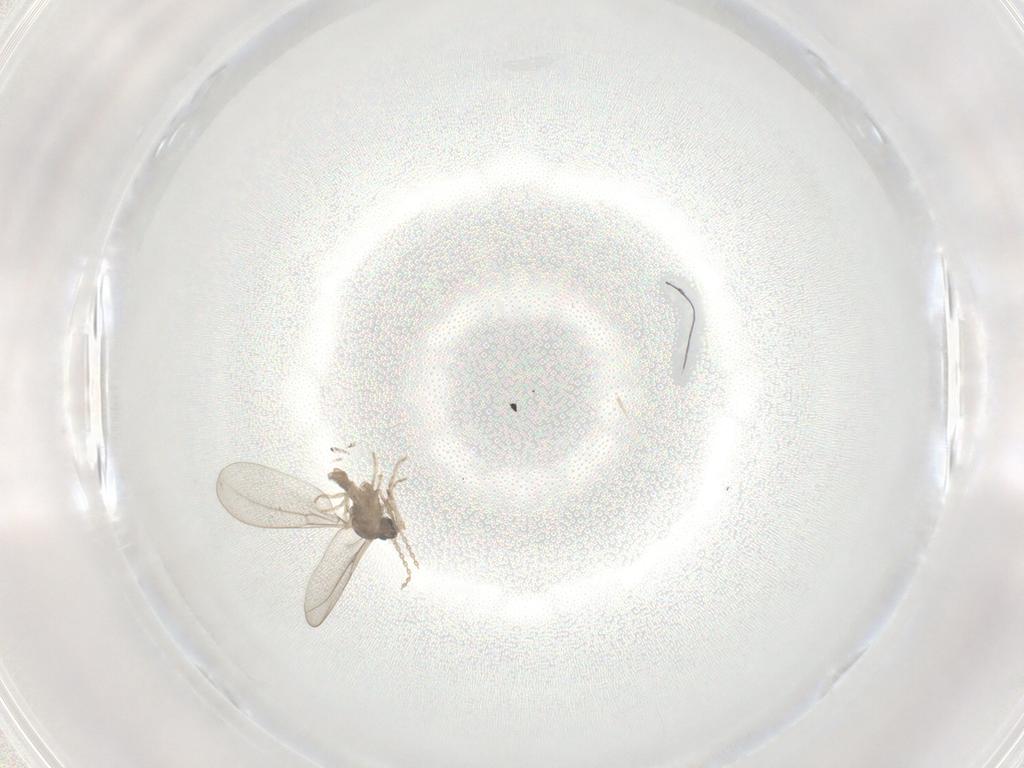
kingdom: Animalia
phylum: Arthropoda
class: Insecta
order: Diptera
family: Cecidomyiidae
